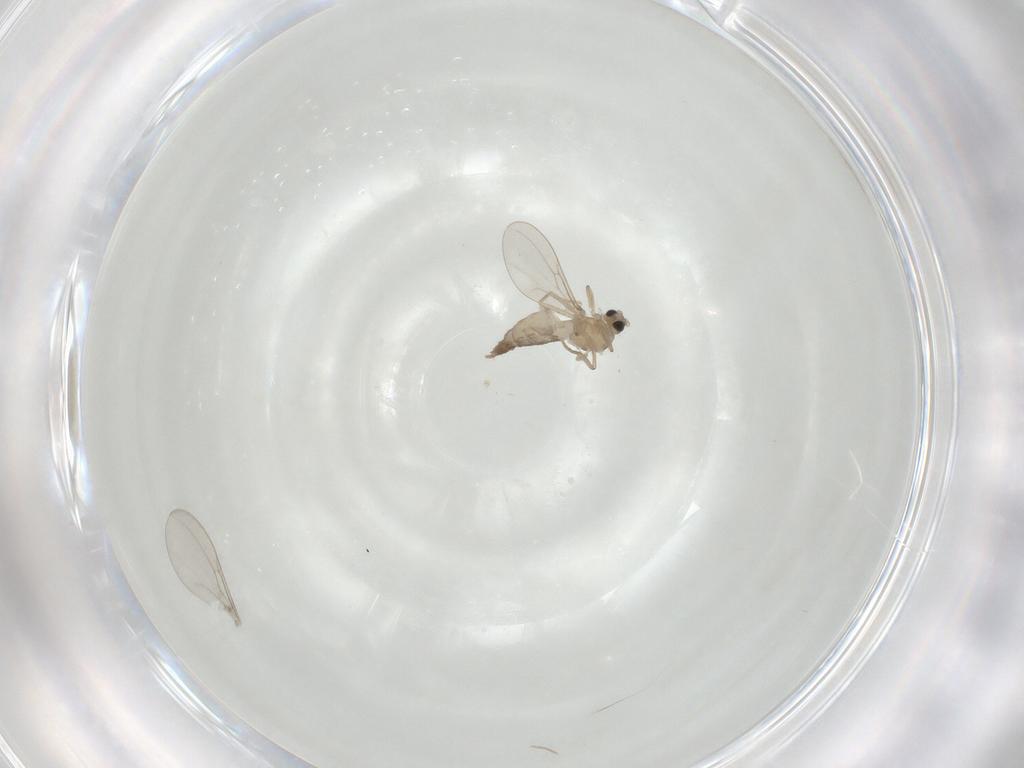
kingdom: Animalia
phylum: Arthropoda
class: Insecta
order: Diptera
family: Cecidomyiidae
